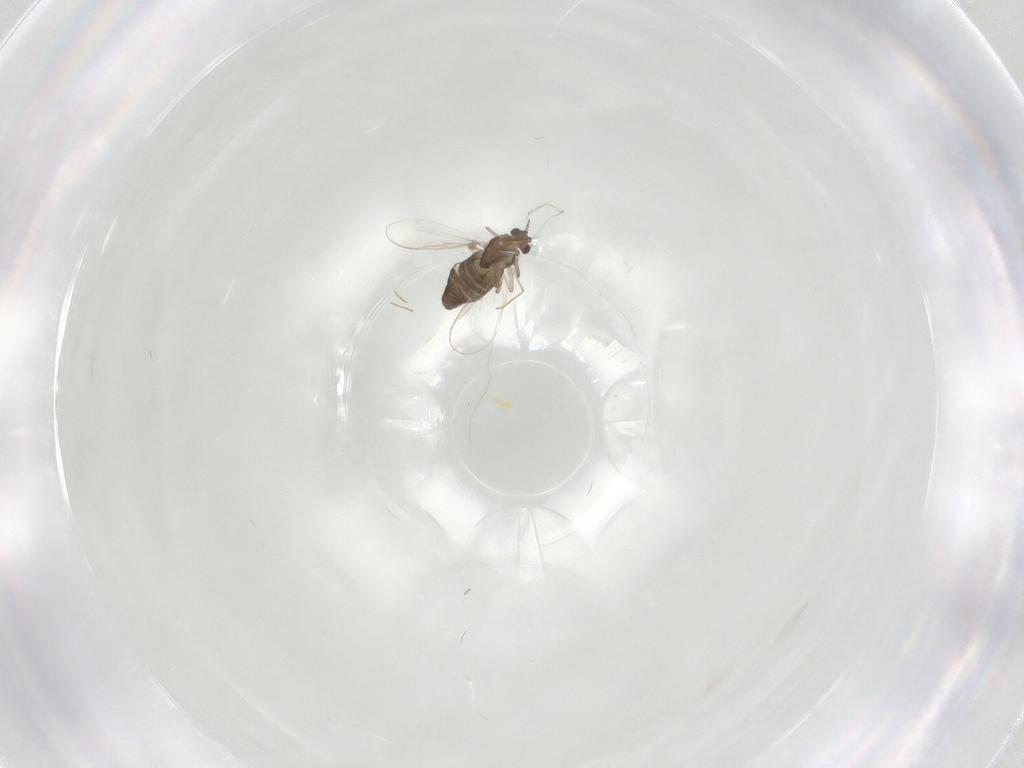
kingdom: Animalia
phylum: Arthropoda
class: Insecta
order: Diptera
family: Chironomidae
